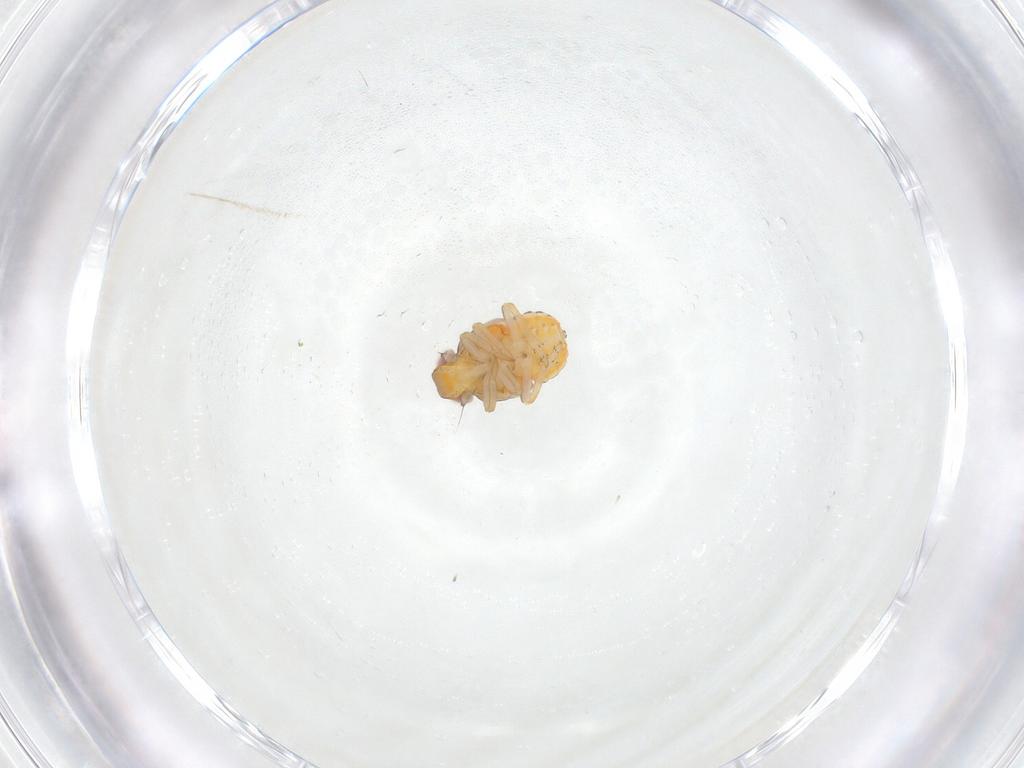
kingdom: Animalia
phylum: Arthropoda
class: Insecta
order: Hemiptera
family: Issidae
